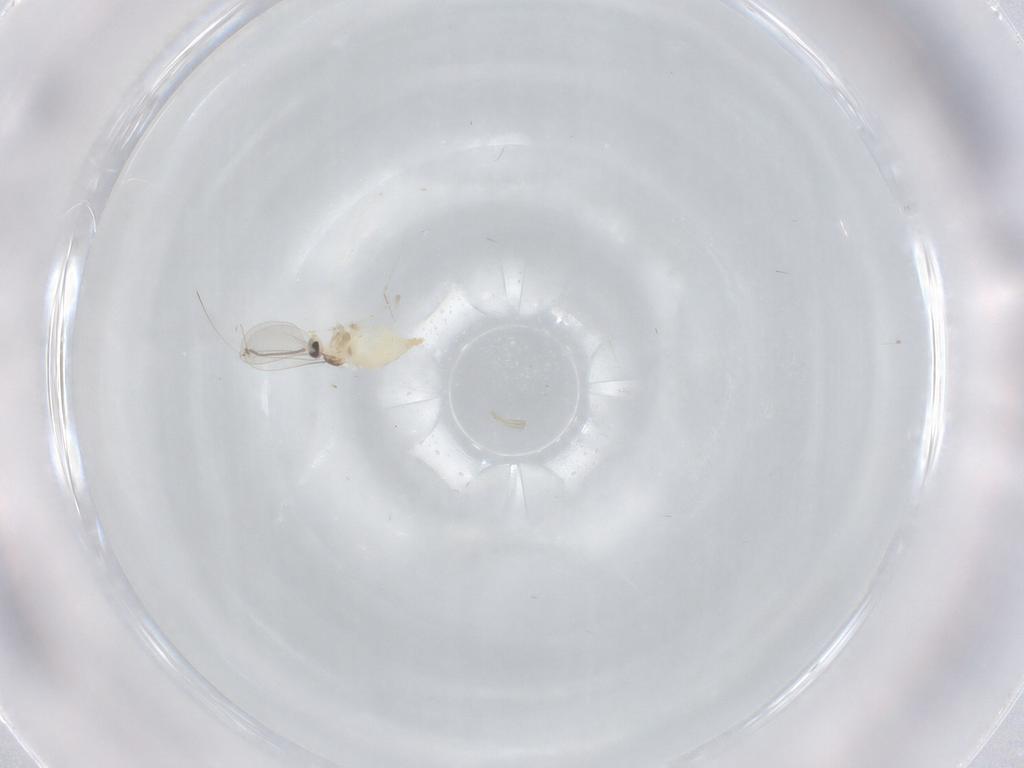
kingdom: Animalia
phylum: Arthropoda
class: Insecta
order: Diptera
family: Cecidomyiidae
